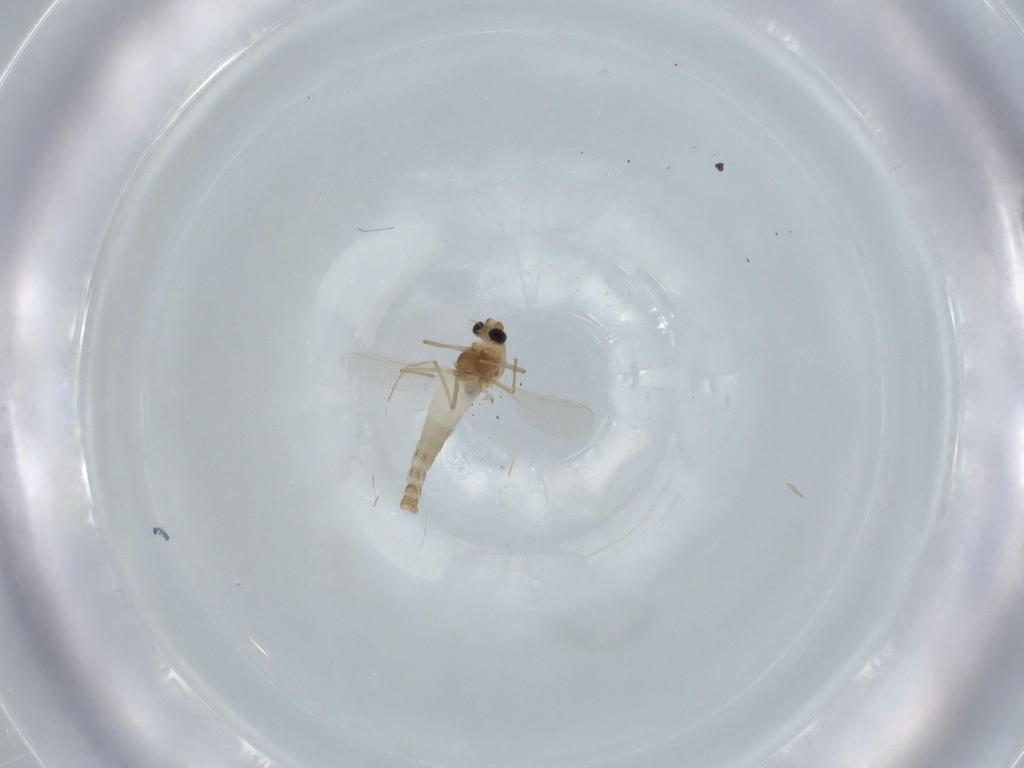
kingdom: Animalia
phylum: Arthropoda
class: Insecta
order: Diptera
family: Chironomidae
